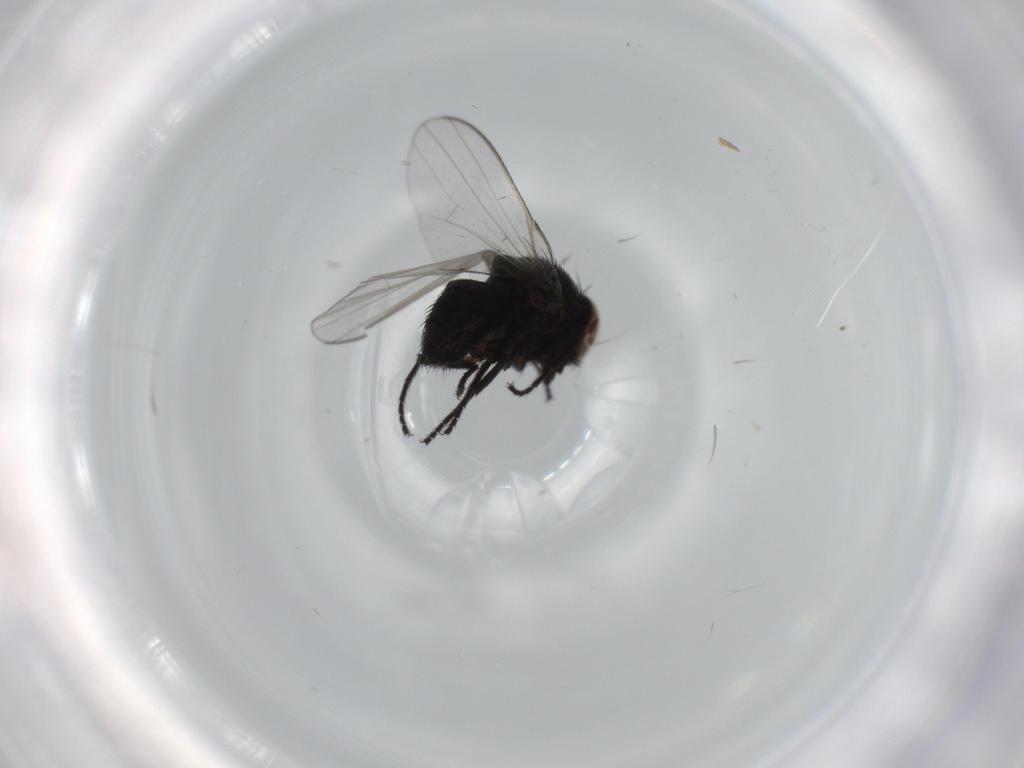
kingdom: Animalia
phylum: Arthropoda
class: Insecta
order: Diptera
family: Milichiidae
